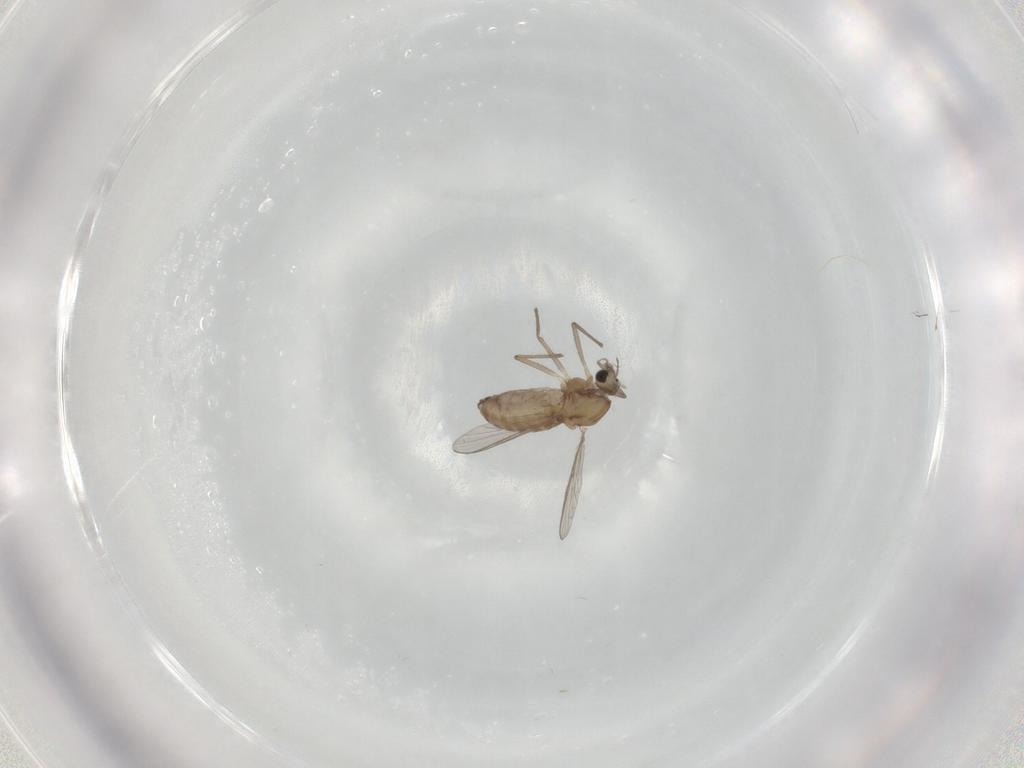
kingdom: Animalia
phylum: Arthropoda
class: Insecta
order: Diptera
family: Chironomidae
